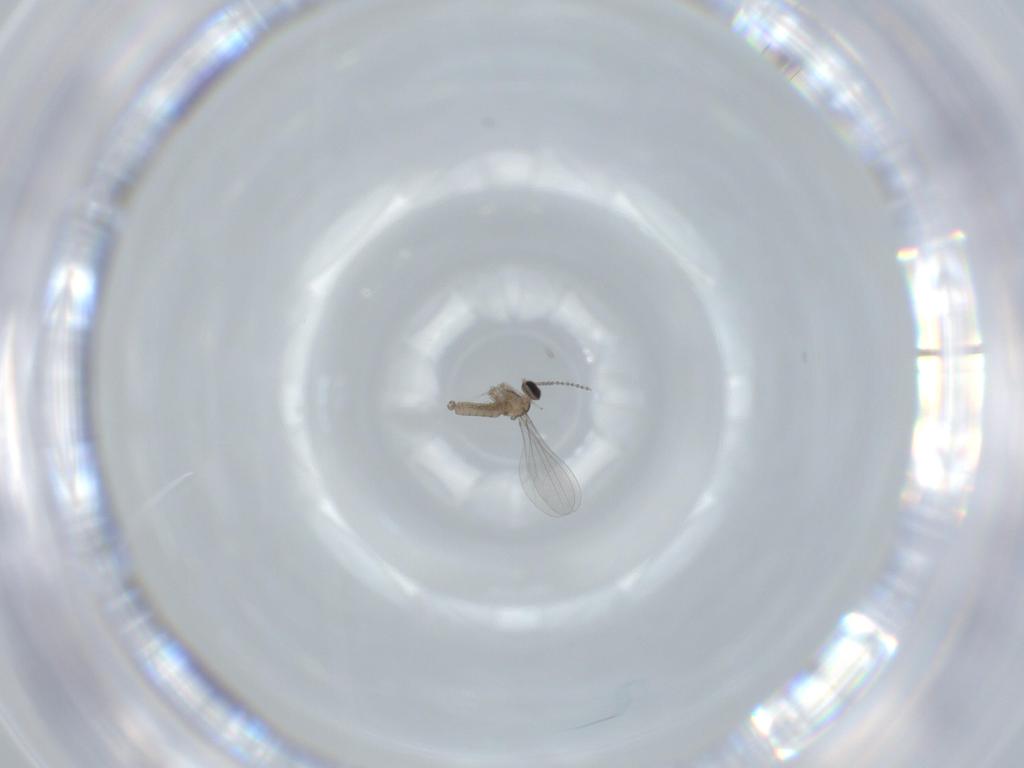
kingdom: Animalia
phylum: Arthropoda
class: Insecta
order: Diptera
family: Cecidomyiidae
